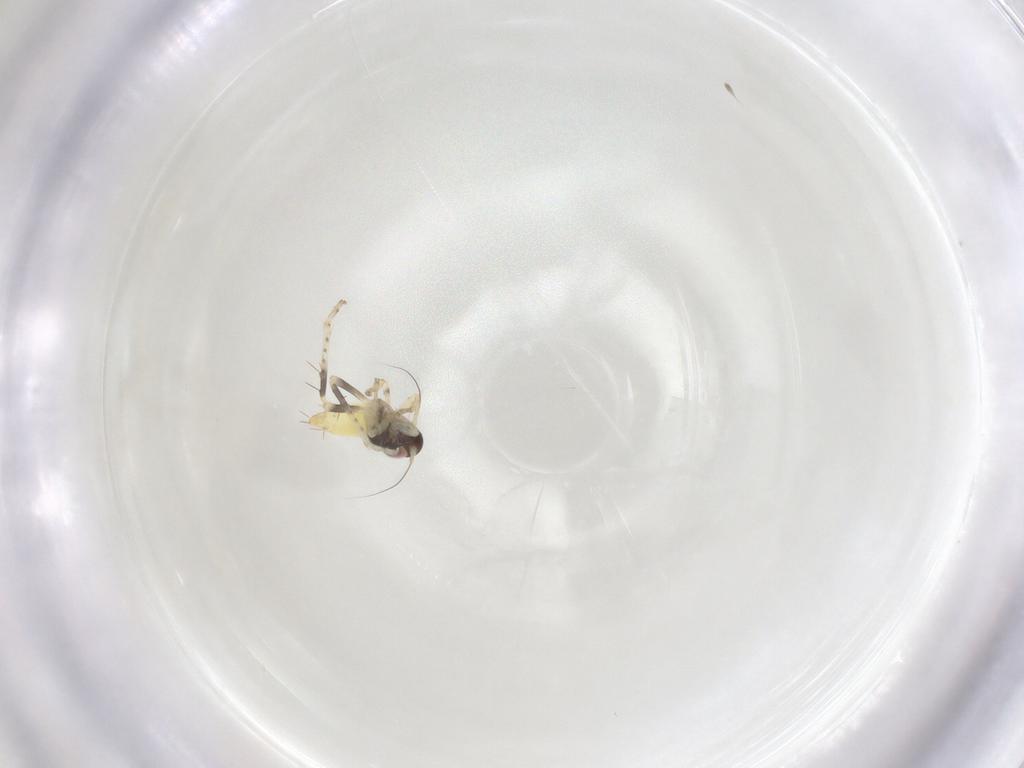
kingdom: Animalia
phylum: Arthropoda
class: Insecta
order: Hemiptera
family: Cicadellidae
